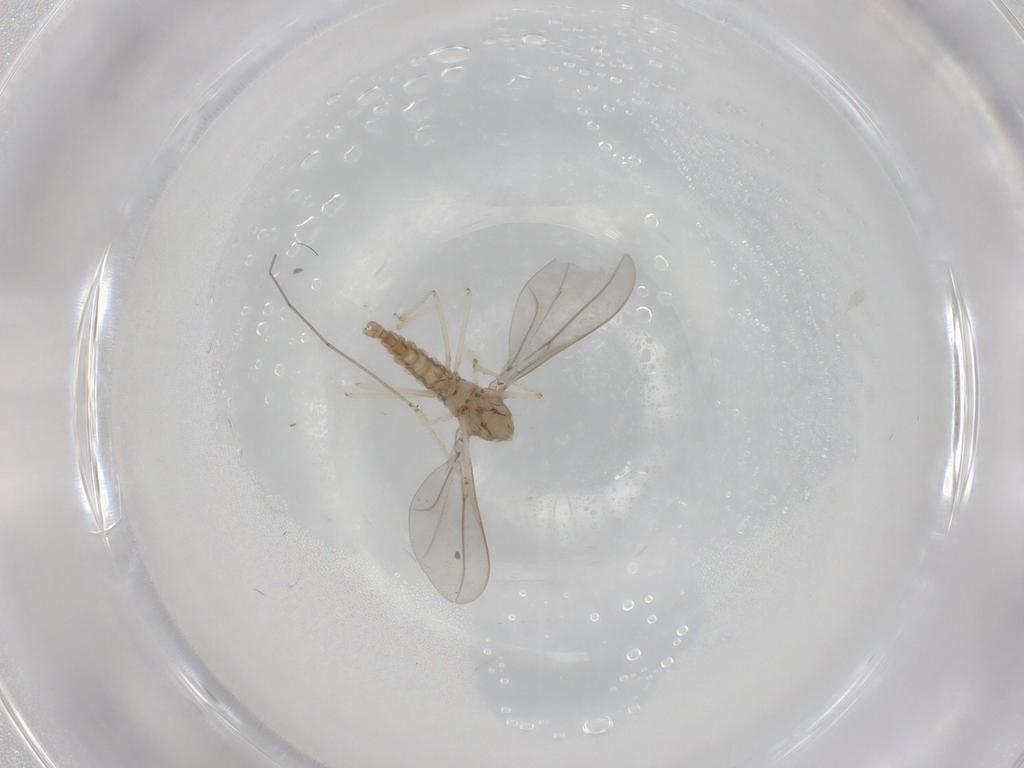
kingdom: Animalia
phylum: Arthropoda
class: Insecta
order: Diptera
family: Cecidomyiidae
